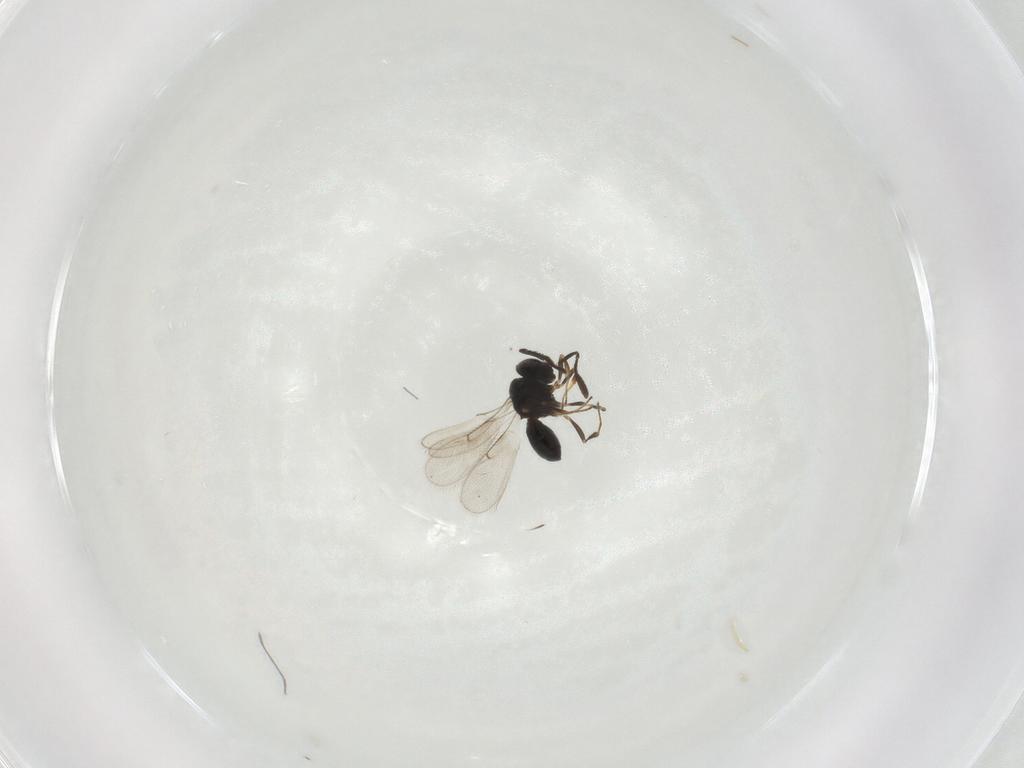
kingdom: Animalia
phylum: Arthropoda
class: Insecta
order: Hymenoptera
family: Scelionidae
